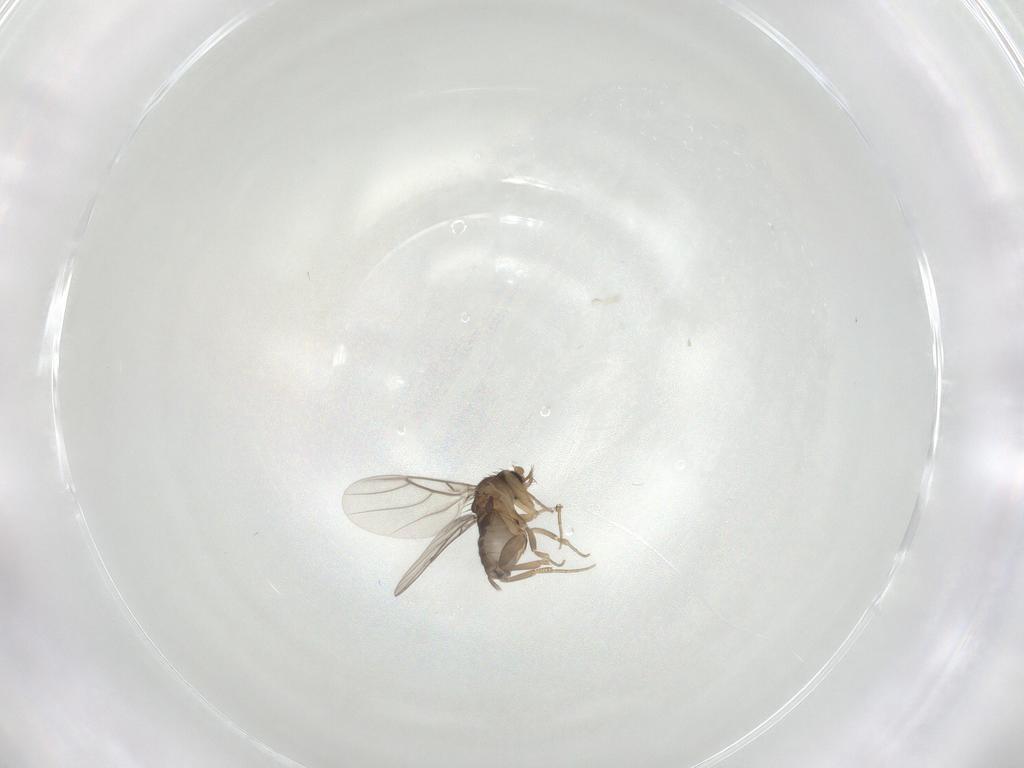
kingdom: Animalia
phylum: Arthropoda
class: Insecta
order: Diptera
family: Phoridae
